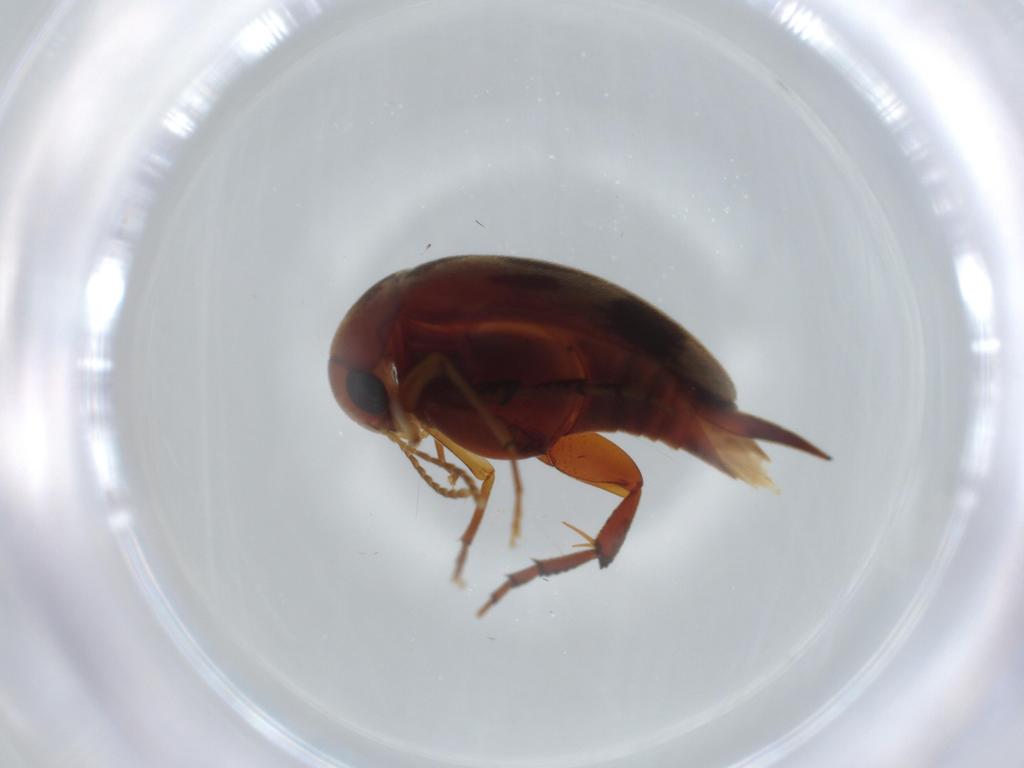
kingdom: Animalia
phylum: Arthropoda
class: Insecta
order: Coleoptera
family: Chrysomelidae
